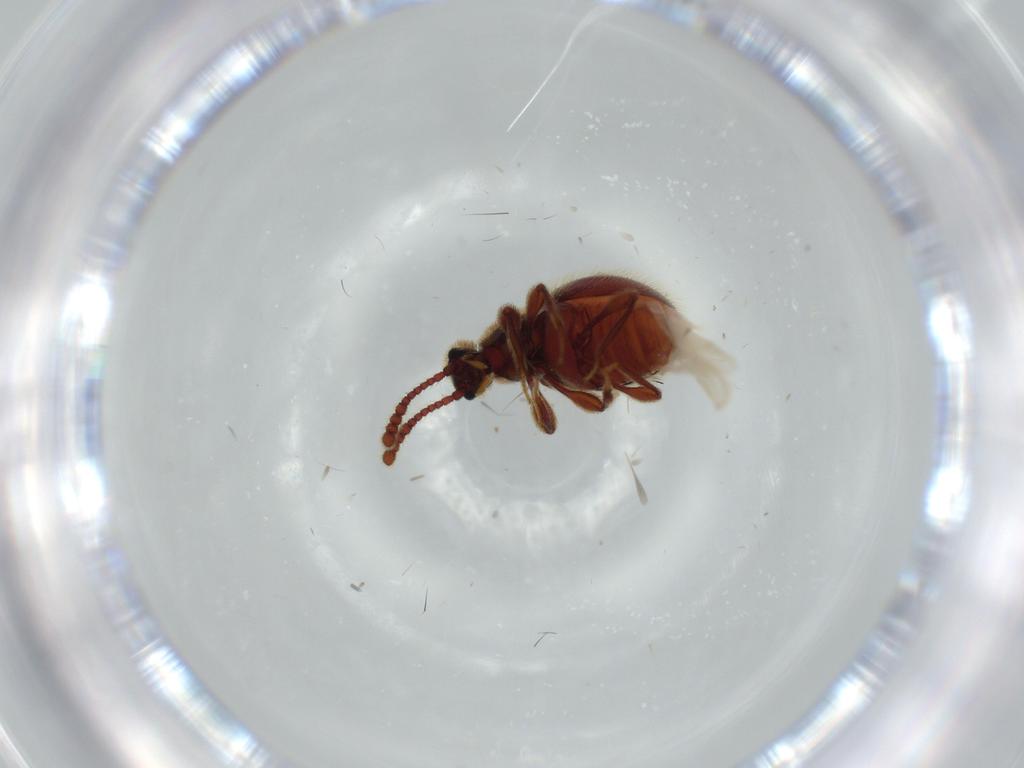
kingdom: Animalia
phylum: Arthropoda
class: Insecta
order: Coleoptera
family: Staphylinidae
